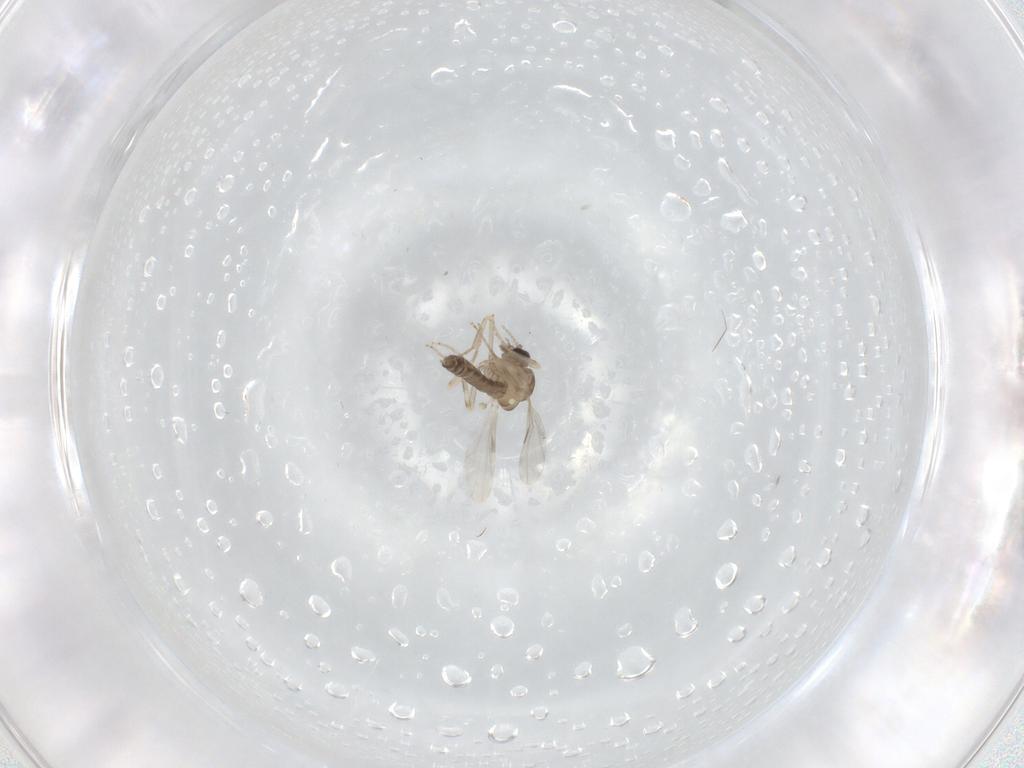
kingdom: Animalia
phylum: Arthropoda
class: Insecta
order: Diptera
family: Ceratopogonidae
